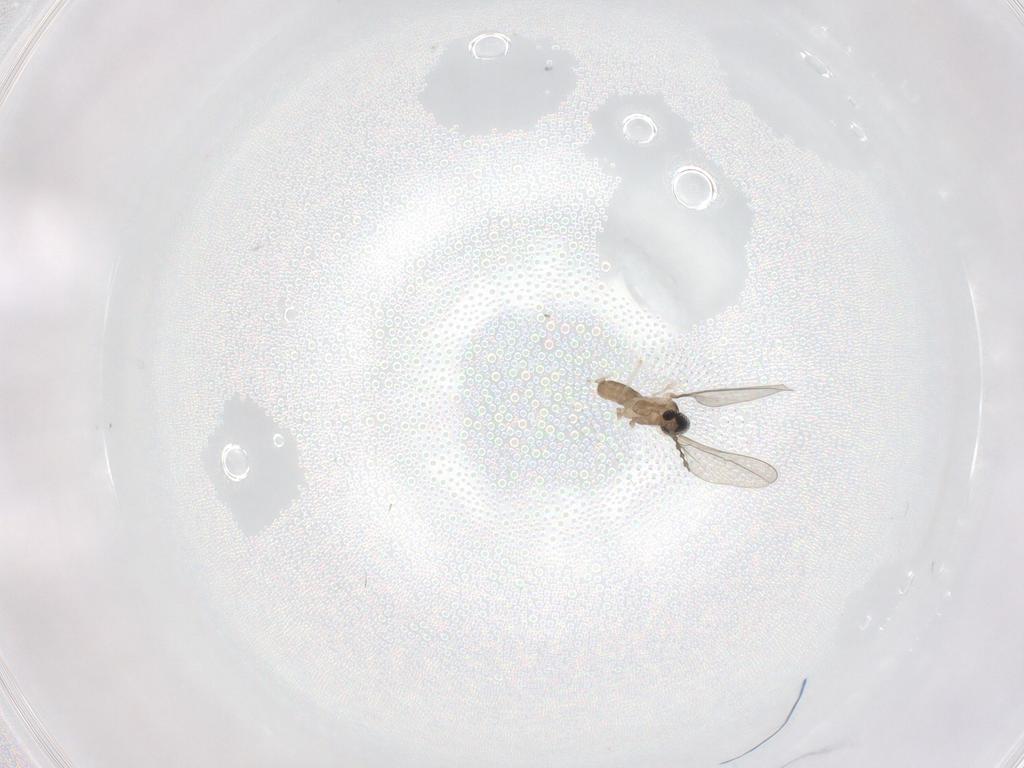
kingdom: Animalia
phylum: Arthropoda
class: Insecta
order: Diptera
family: Cecidomyiidae
